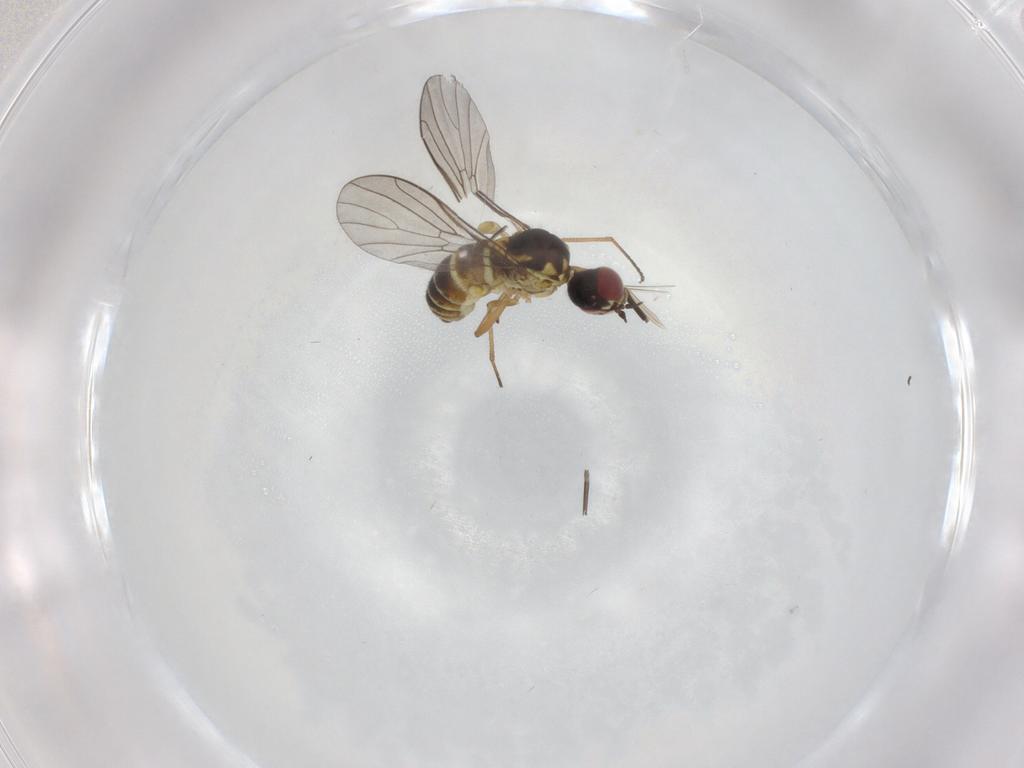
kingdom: Animalia
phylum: Arthropoda
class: Insecta
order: Diptera
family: Bombyliidae
